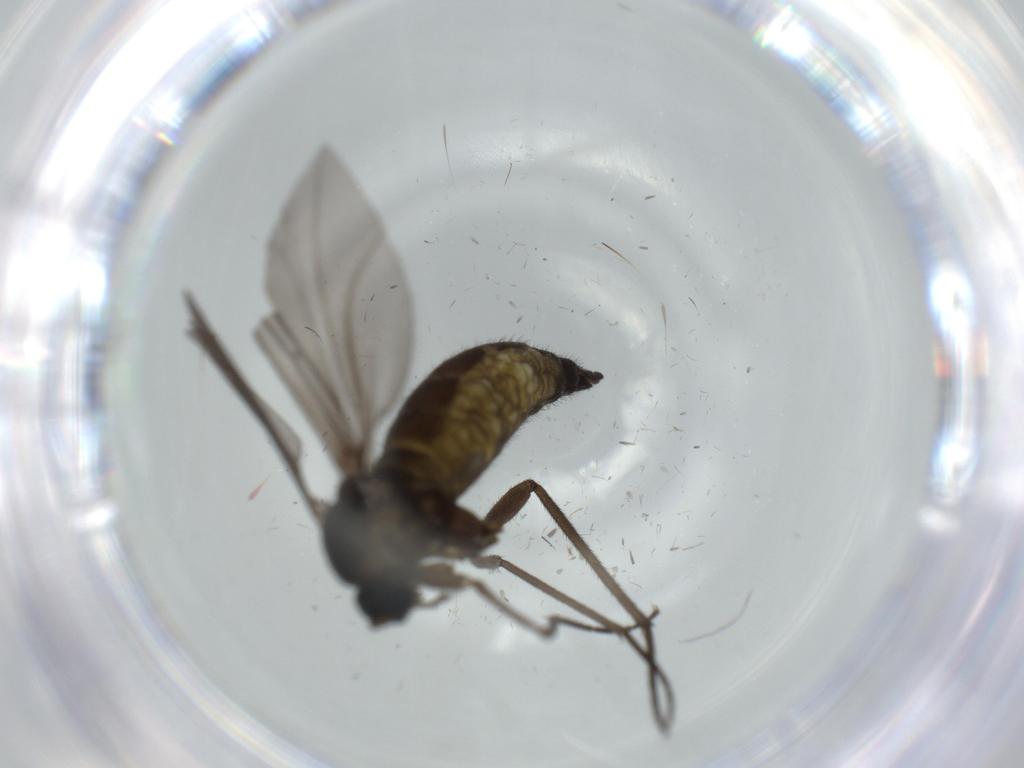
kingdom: Animalia
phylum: Arthropoda
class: Insecta
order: Diptera
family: Sciaridae
